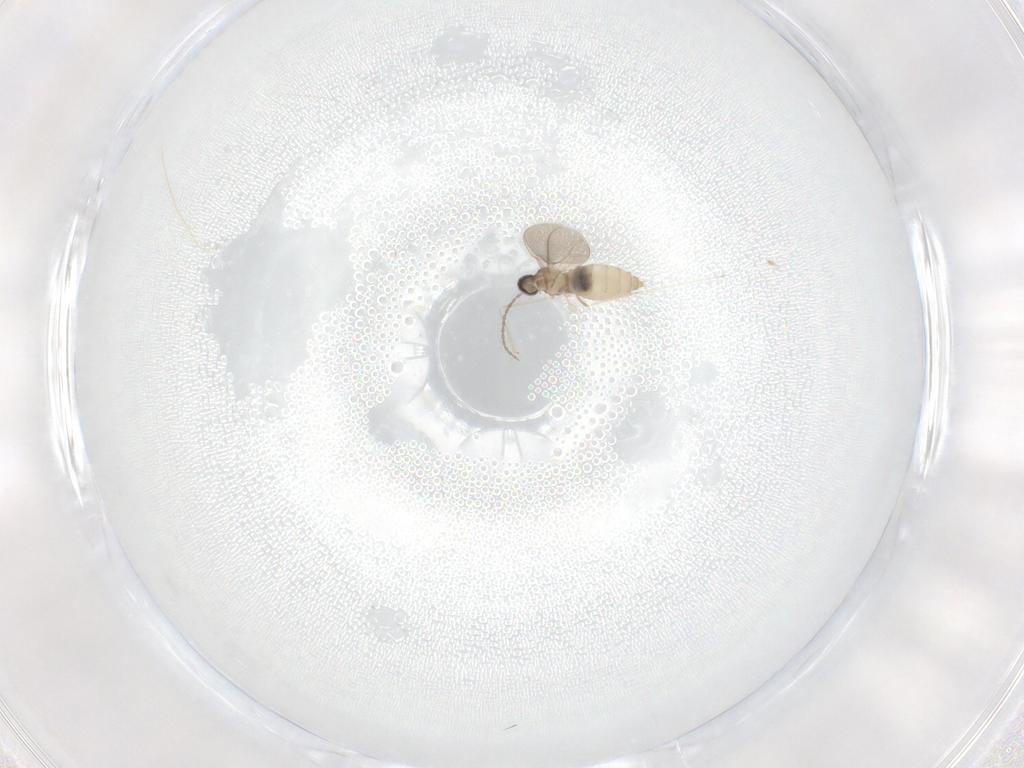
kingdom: Animalia
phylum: Arthropoda
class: Insecta
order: Diptera
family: Cecidomyiidae
